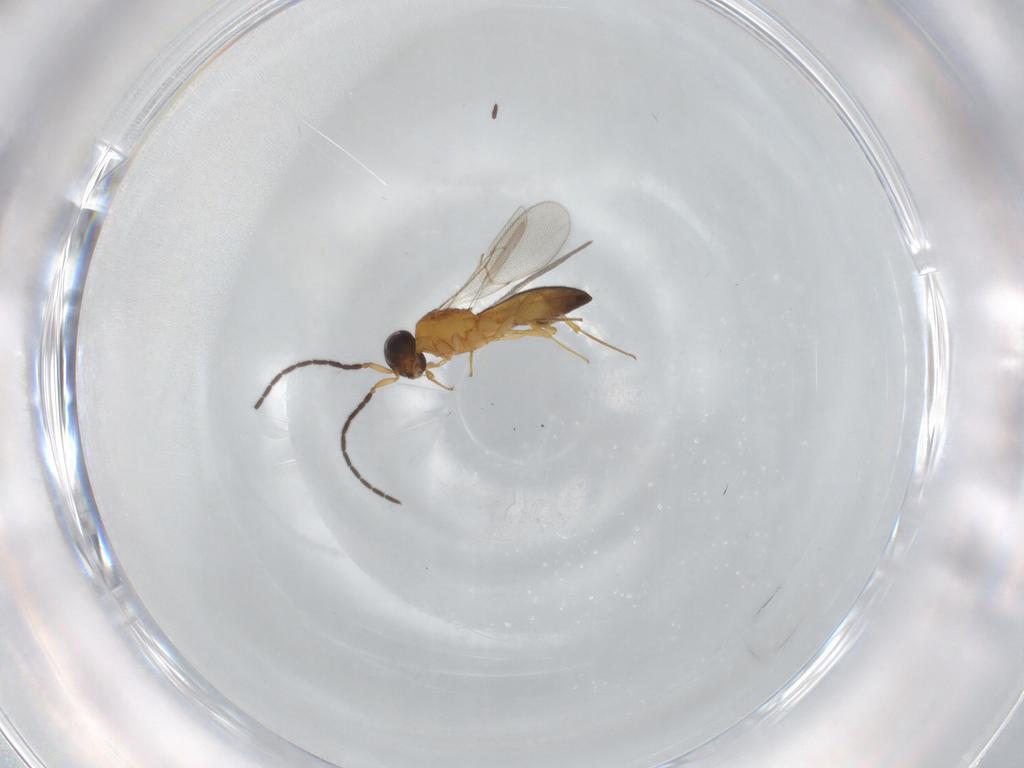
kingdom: Animalia
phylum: Arthropoda
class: Insecta
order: Hymenoptera
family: Scelionidae
